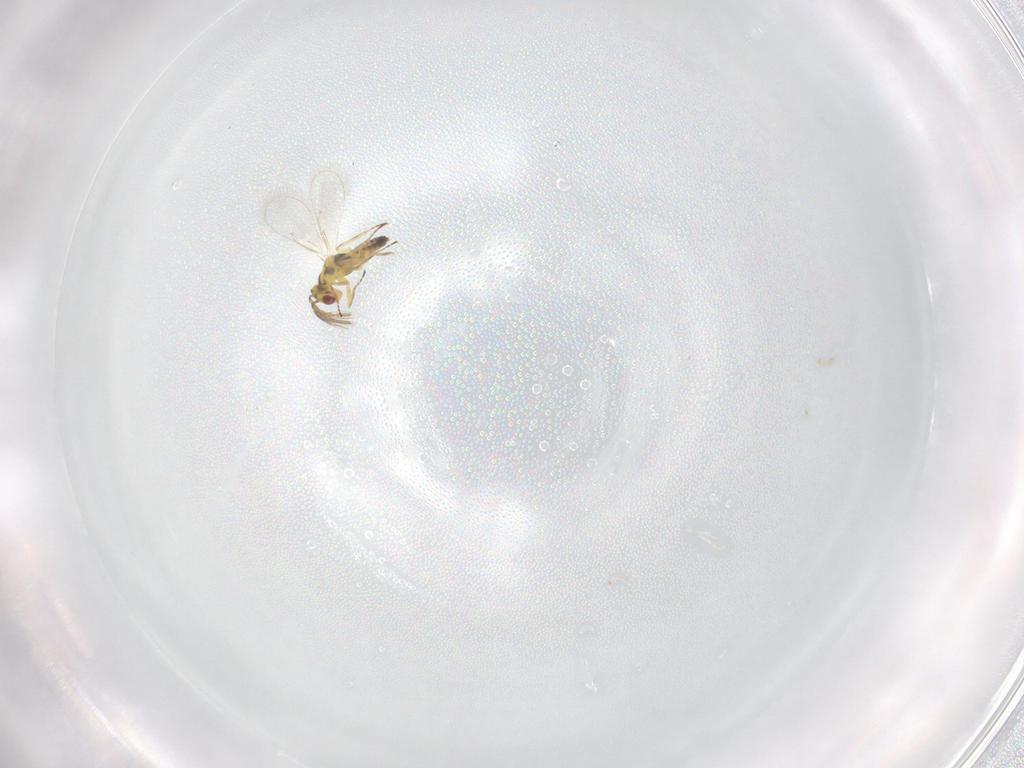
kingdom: Animalia
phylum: Arthropoda
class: Insecta
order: Hymenoptera
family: Eulophidae
